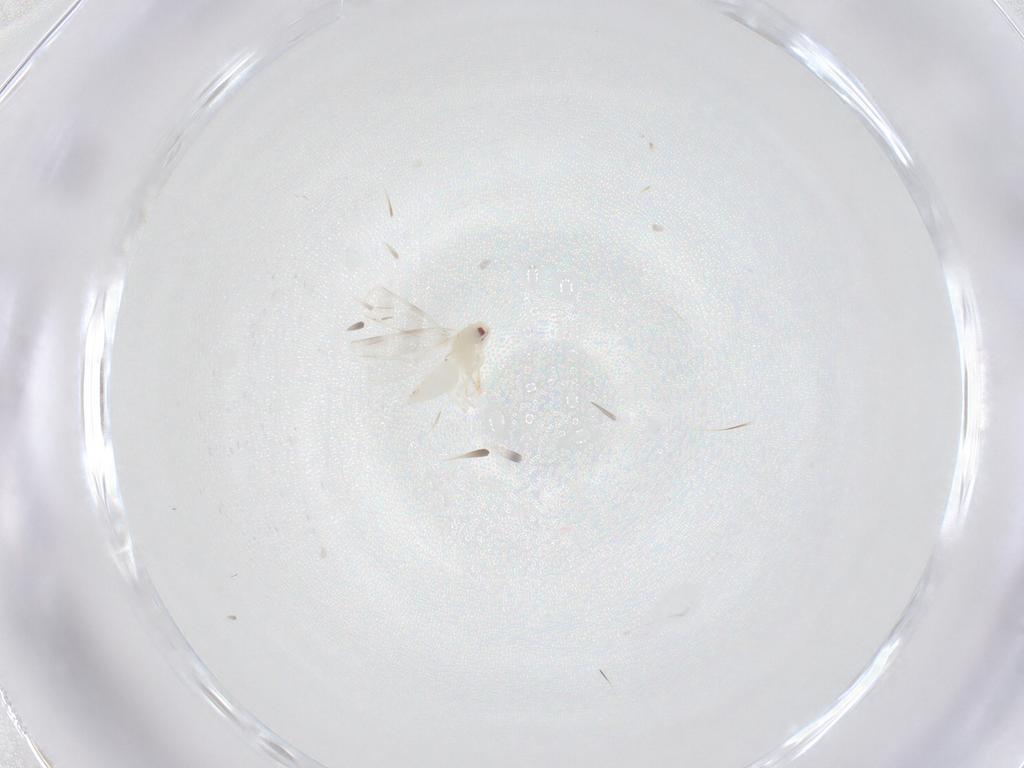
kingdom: Animalia
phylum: Arthropoda
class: Insecta
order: Hemiptera
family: Aleyrodidae
